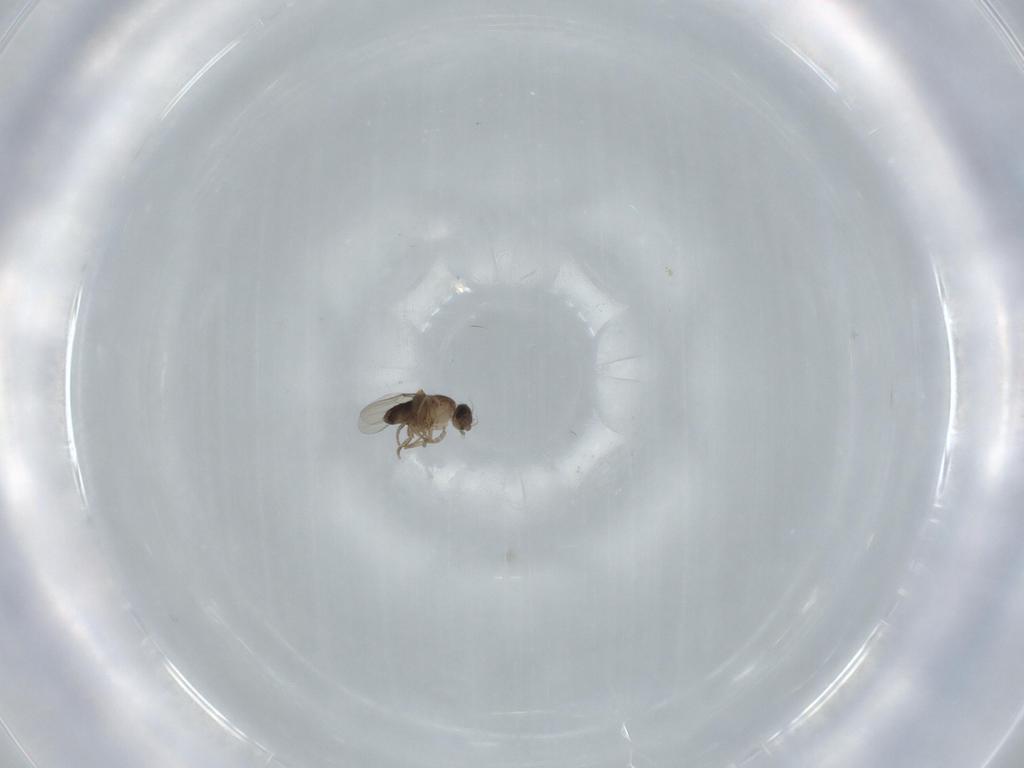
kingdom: Animalia
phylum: Arthropoda
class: Insecta
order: Diptera
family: Phoridae
